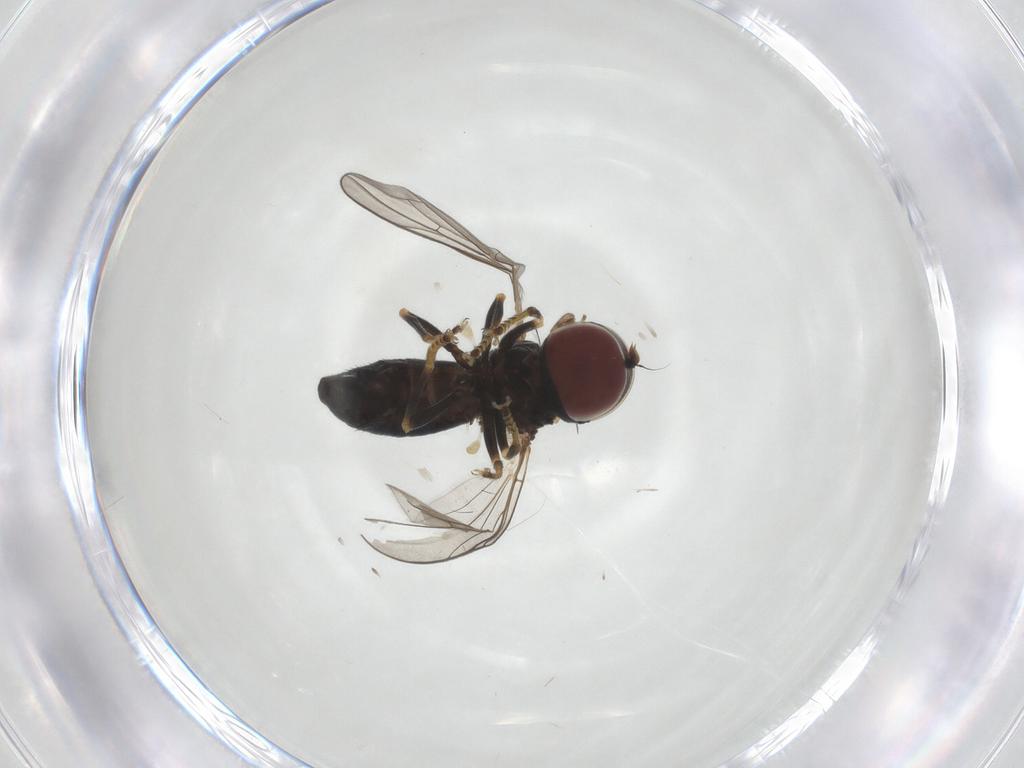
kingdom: Animalia
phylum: Arthropoda
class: Insecta
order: Diptera
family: Pipunculidae
